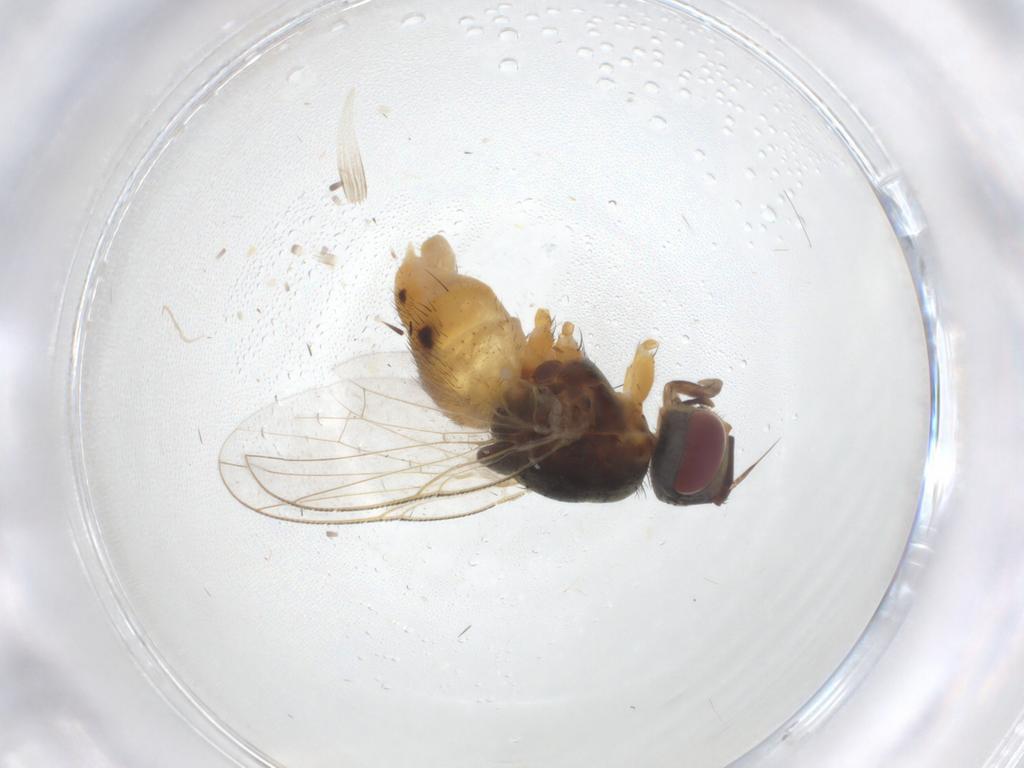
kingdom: Animalia
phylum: Arthropoda
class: Insecta
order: Diptera
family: Muscidae
